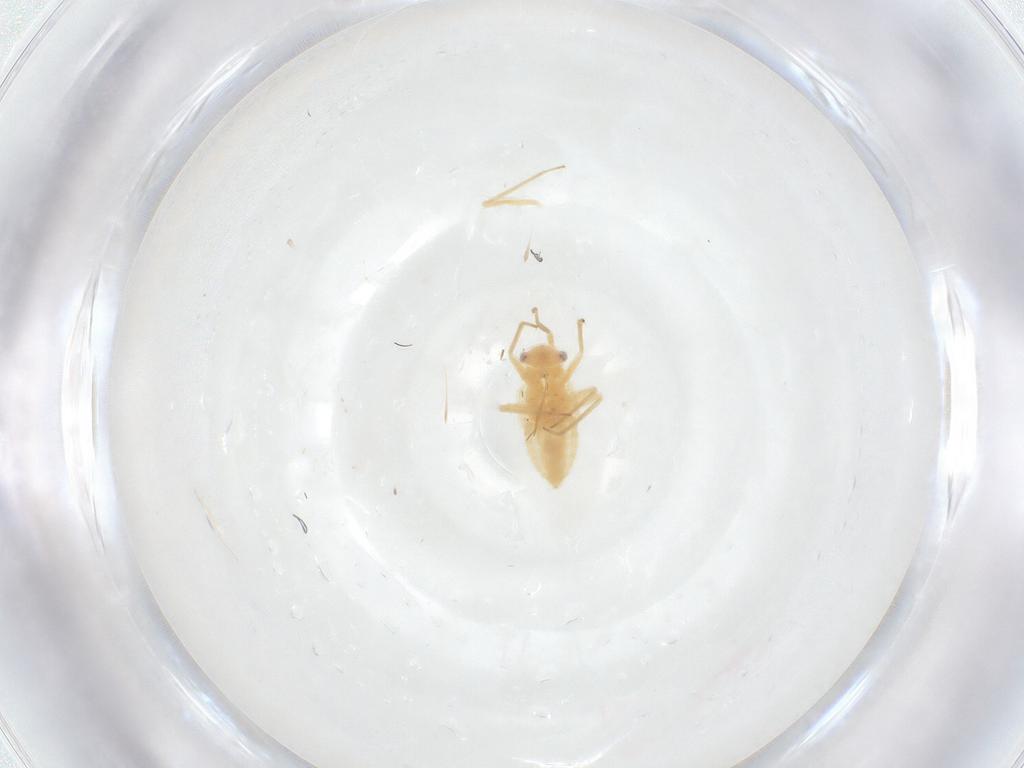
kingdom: Animalia
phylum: Arthropoda
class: Insecta
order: Hemiptera
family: Miridae
